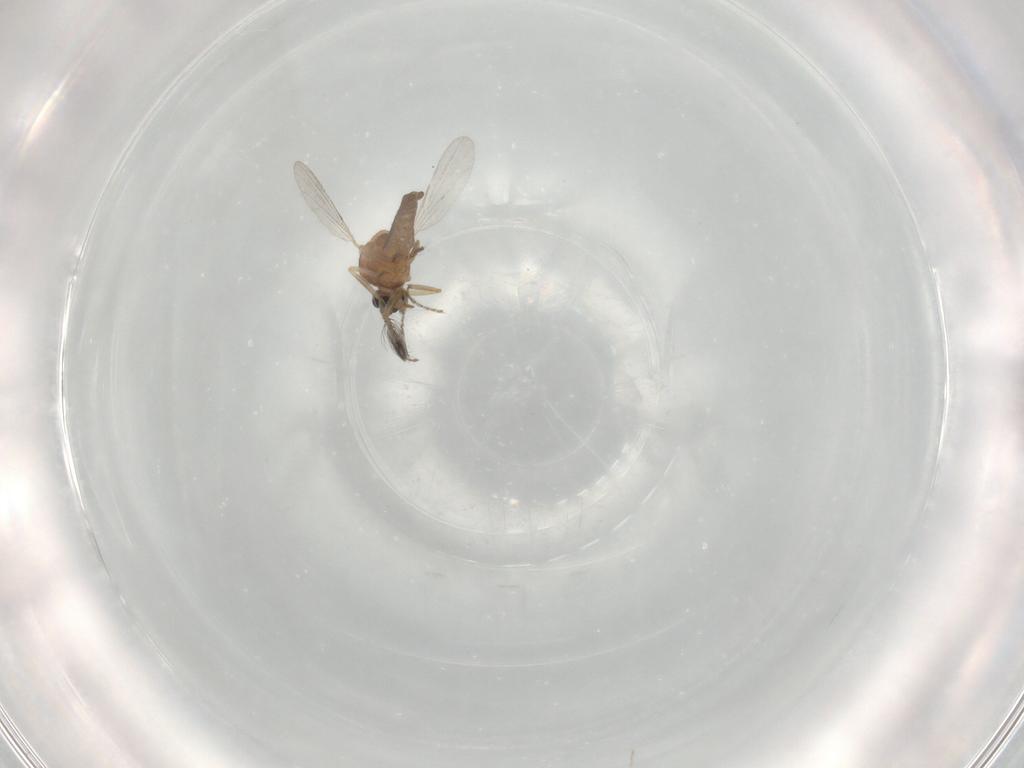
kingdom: Animalia
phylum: Arthropoda
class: Insecta
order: Diptera
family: Ceratopogonidae
